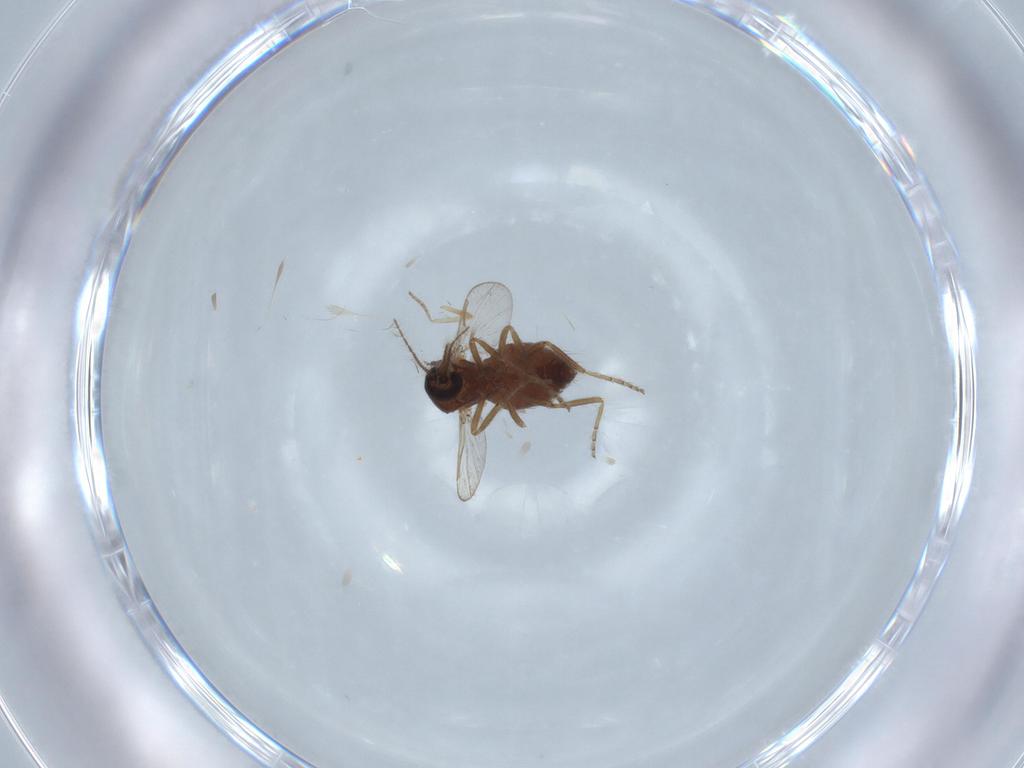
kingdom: Animalia
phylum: Arthropoda
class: Insecta
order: Diptera
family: Ceratopogonidae
